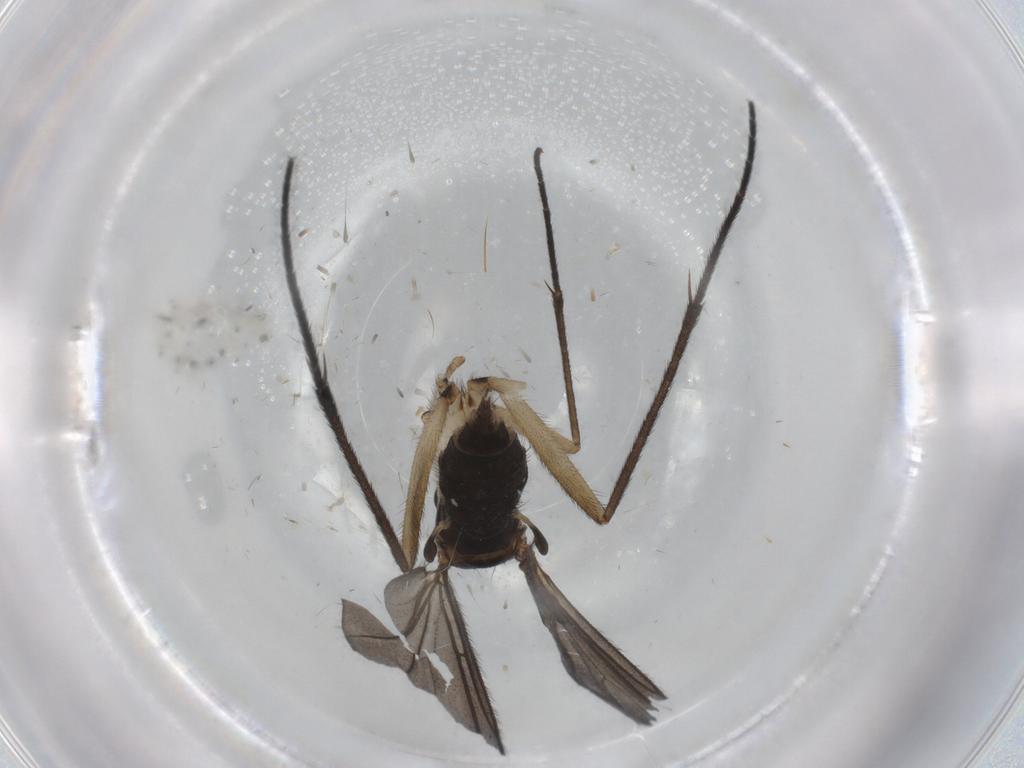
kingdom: Animalia
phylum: Arthropoda
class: Insecta
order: Diptera
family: Sciaridae
